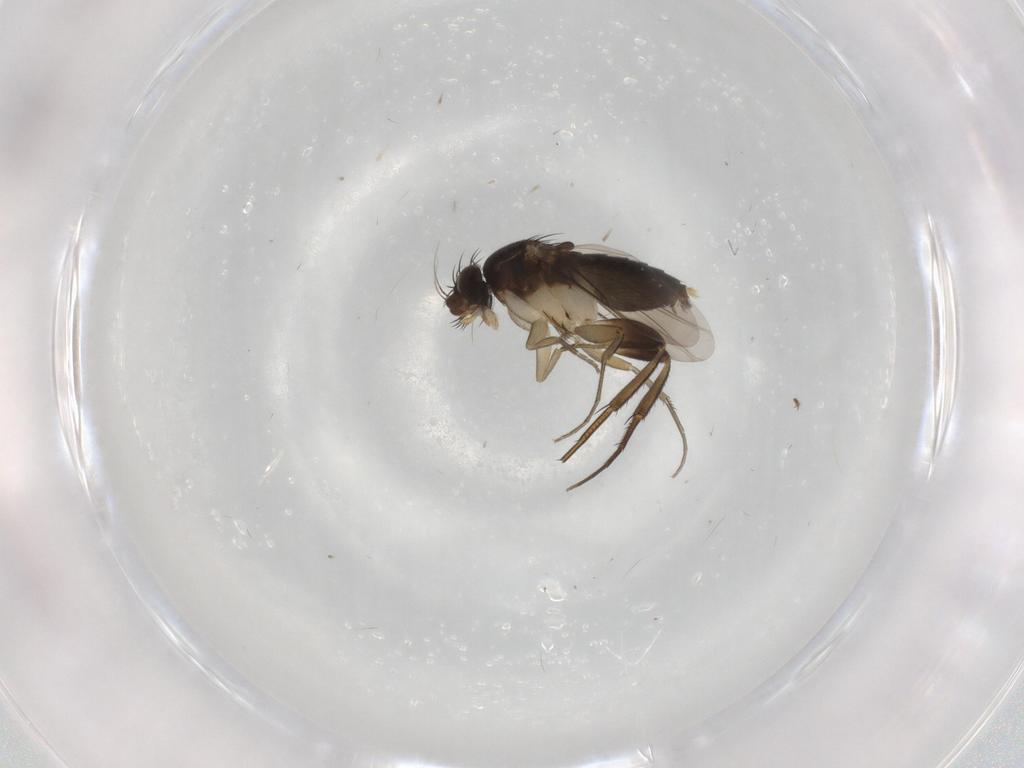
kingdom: Animalia
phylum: Arthropoda
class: Insecta
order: Diptera
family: Phoridae
